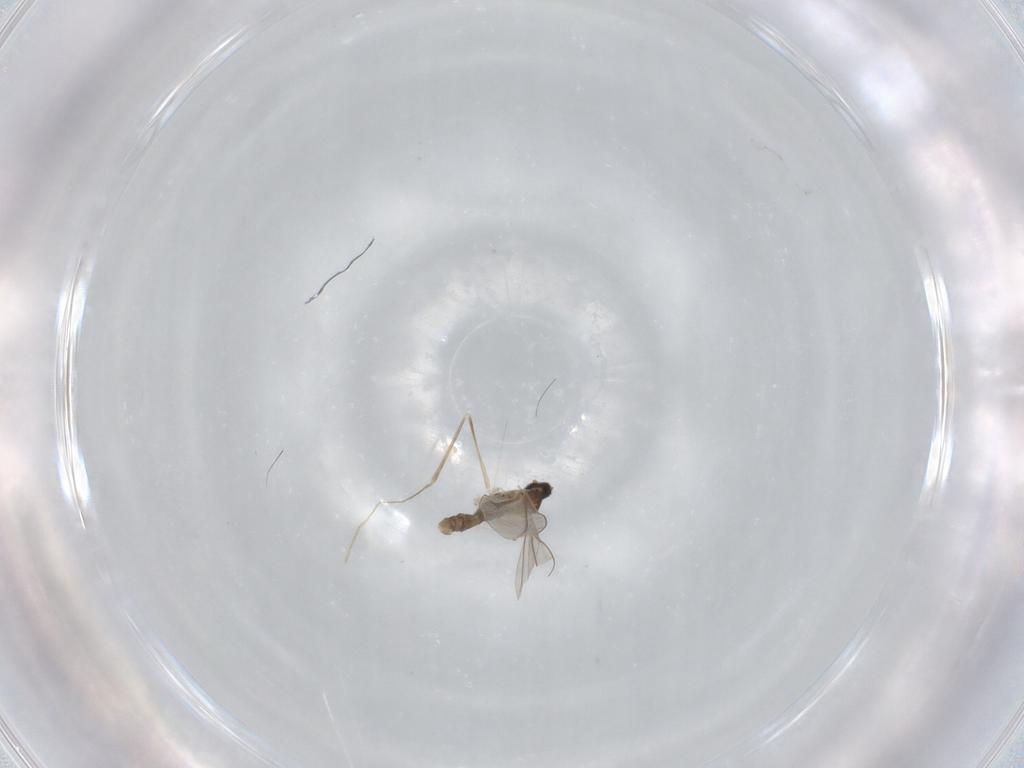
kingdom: Animalia
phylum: Arthropoda
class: Insecta
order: Diptera
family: Cecidomyiidae
